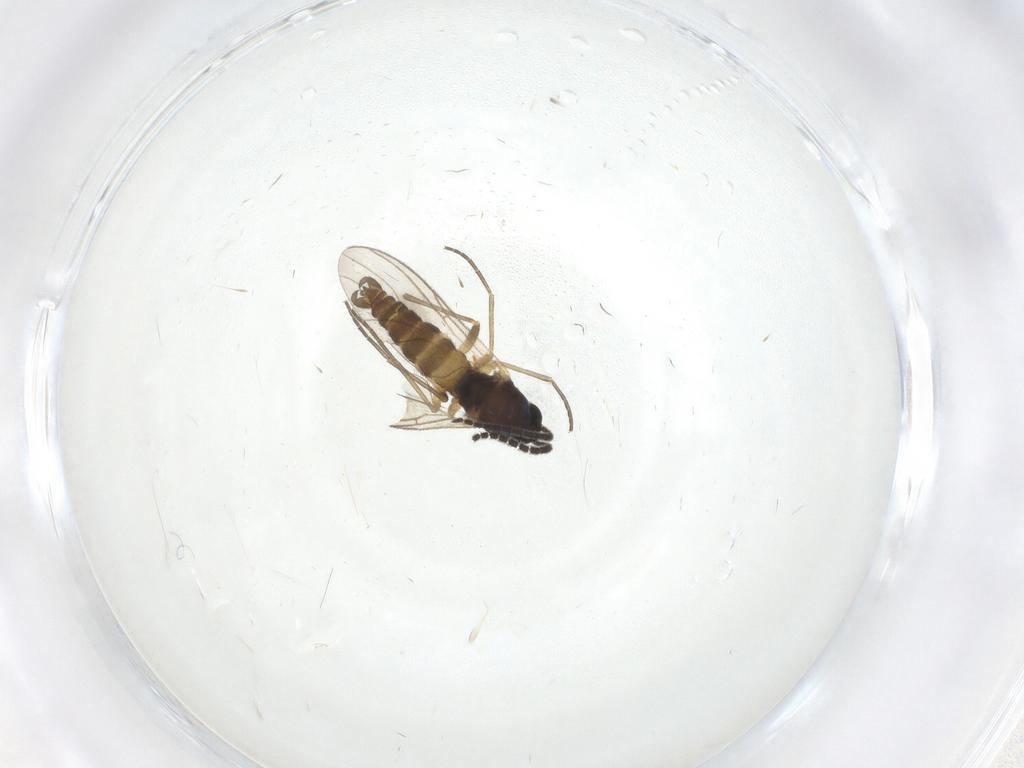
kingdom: Animalia
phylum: Arthropoda
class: Insecta
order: Diptera
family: Sciaridae
